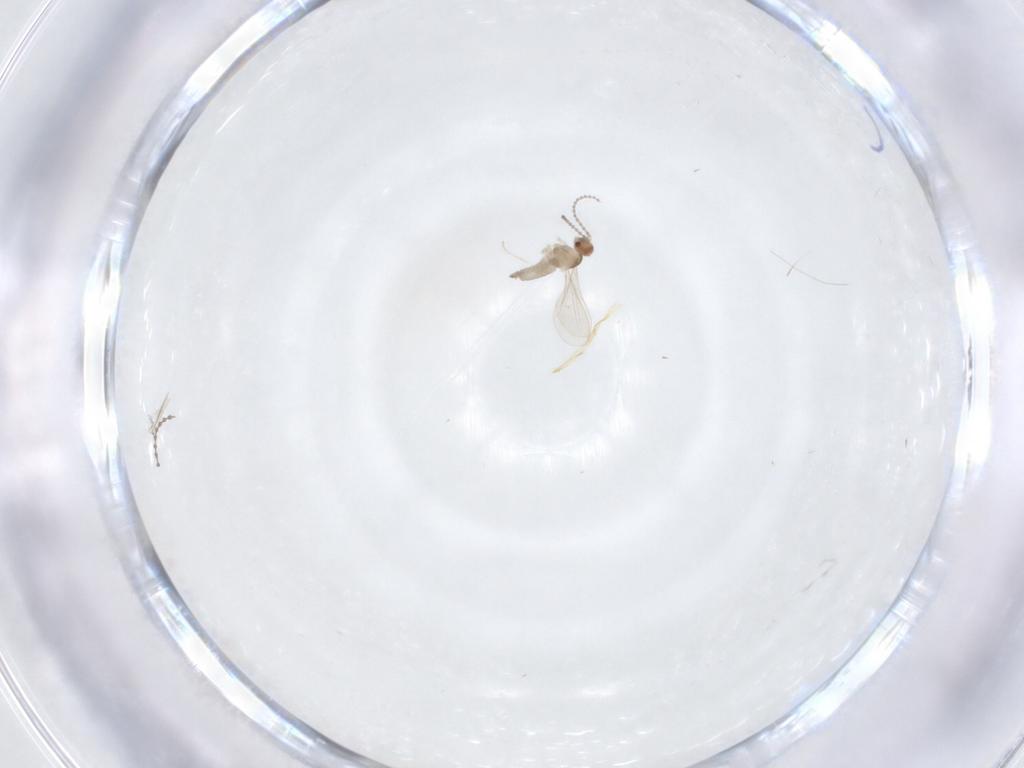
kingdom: Animalia
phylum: Arthropoda
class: Insecta
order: Diptera
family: Limoniidae
